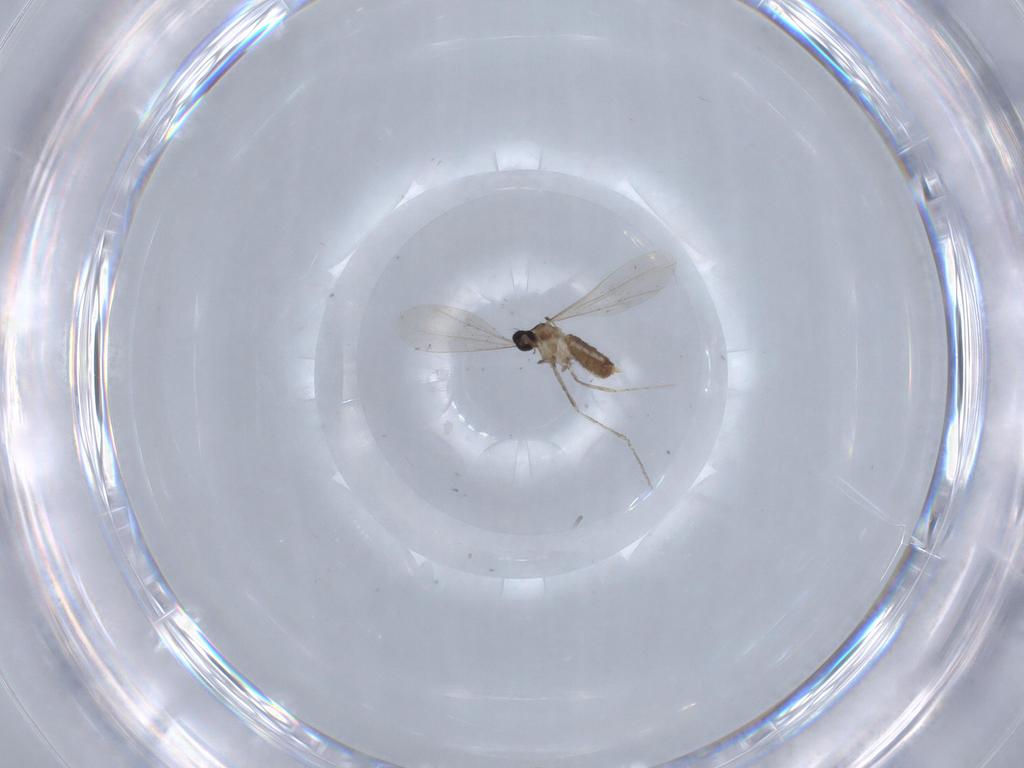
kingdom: Animalia
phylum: Arthropoda
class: Insecta
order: Diptera
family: Cecidomyiidae
